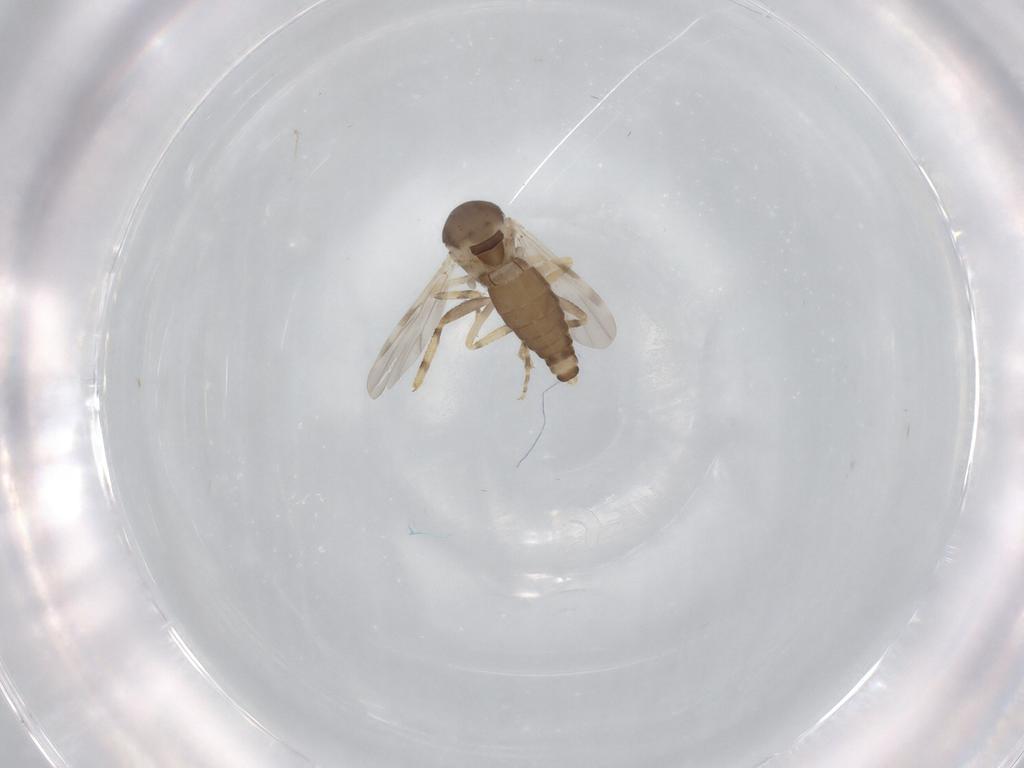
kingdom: Animalia
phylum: Arthropoda
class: Insecta
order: Diptera
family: Ceratopogonidae
